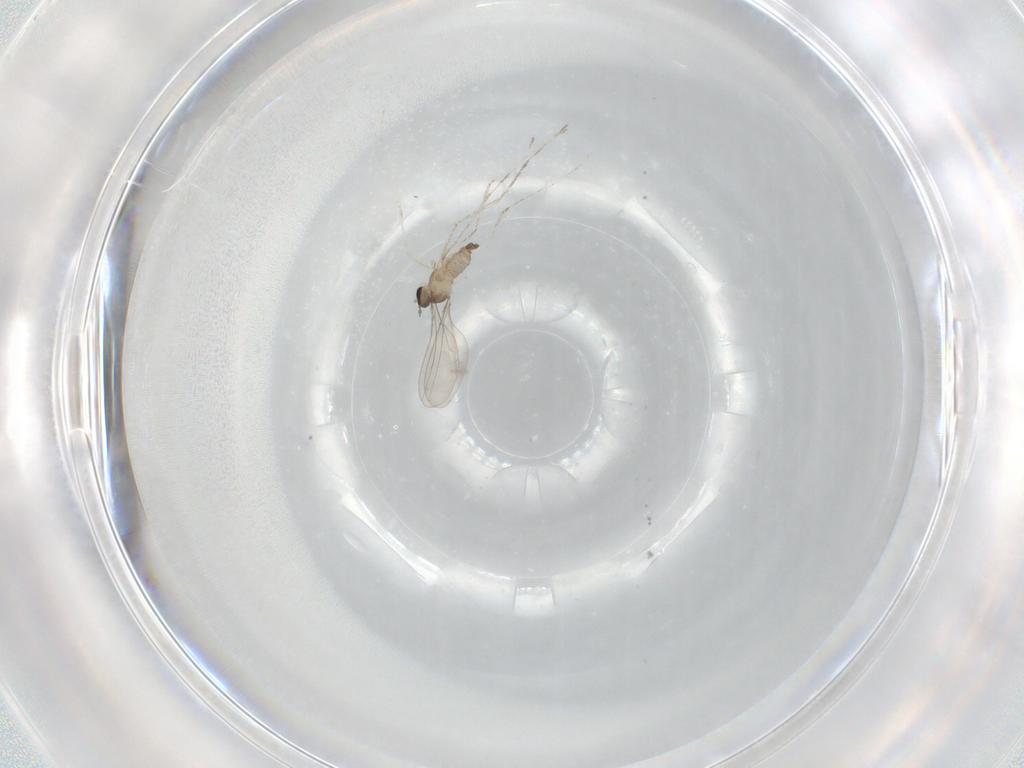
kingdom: Animalia
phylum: Arthropoda
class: Insecta
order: Diptera
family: Cecidomyiidae
